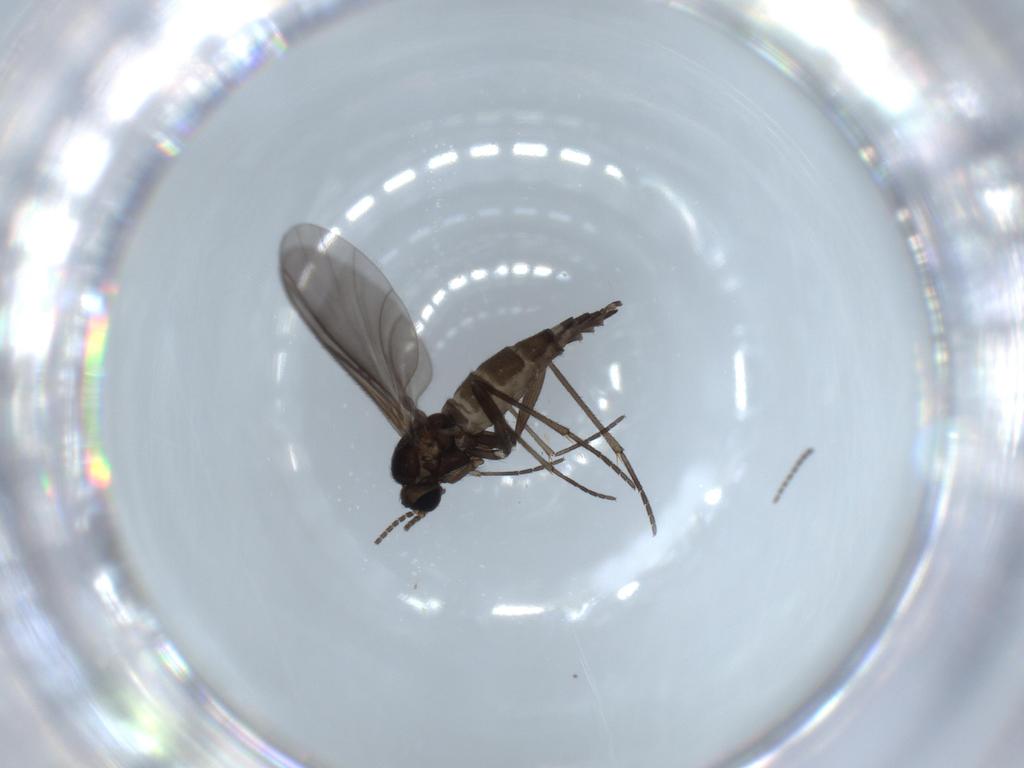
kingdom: Animalia
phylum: Arthropoda
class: Insecta
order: Diptera
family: Sciaridae
